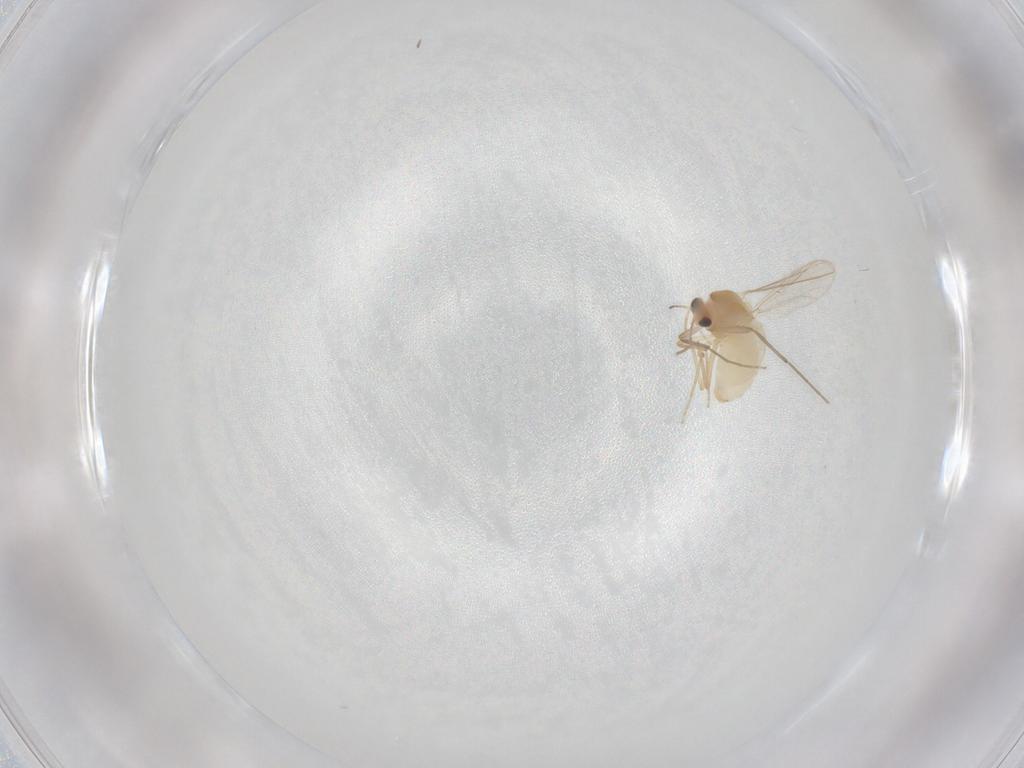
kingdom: Animalia
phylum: Arthropoda
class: Insecta
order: Diptera
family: Chironomidae
